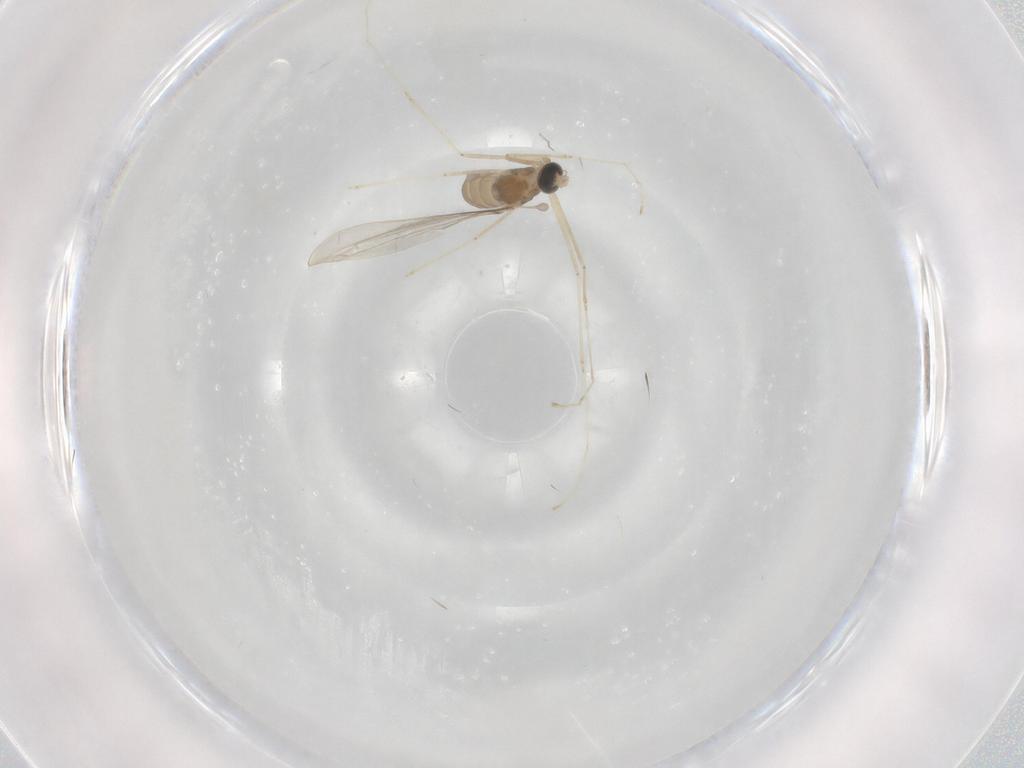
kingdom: Animalia
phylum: Arthropoda
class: Insecta
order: Diptera
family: Cecidomyiidae
